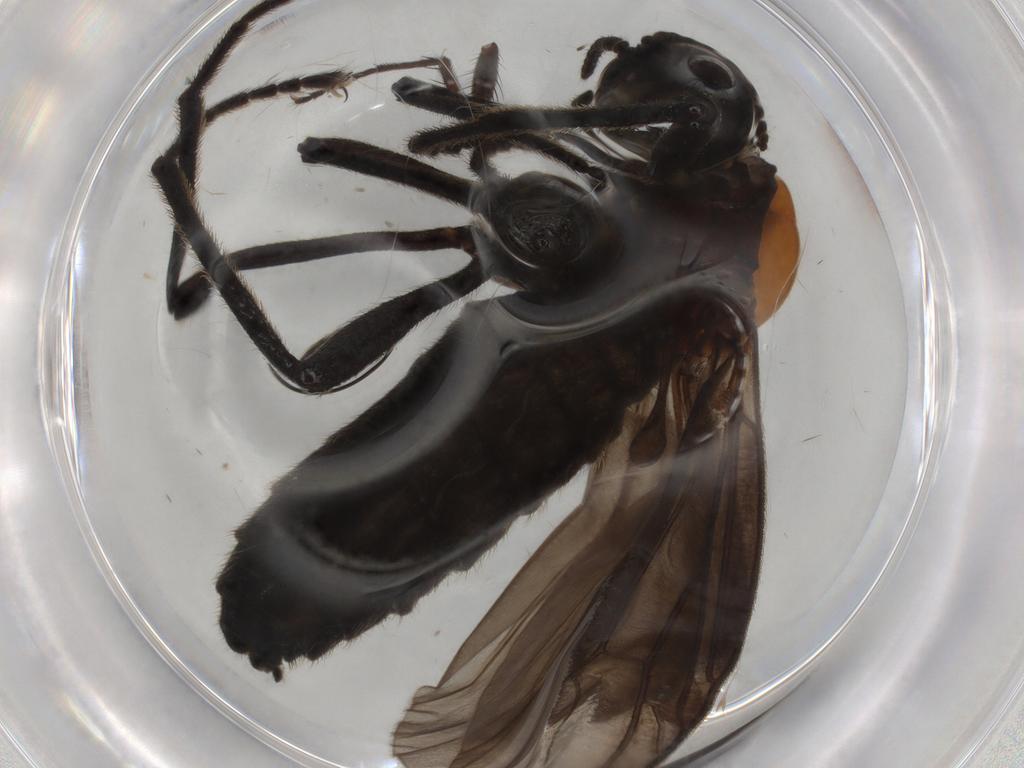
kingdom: Animalia
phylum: Arthropoda
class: Insecta
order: Diptera
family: Bibionidae
